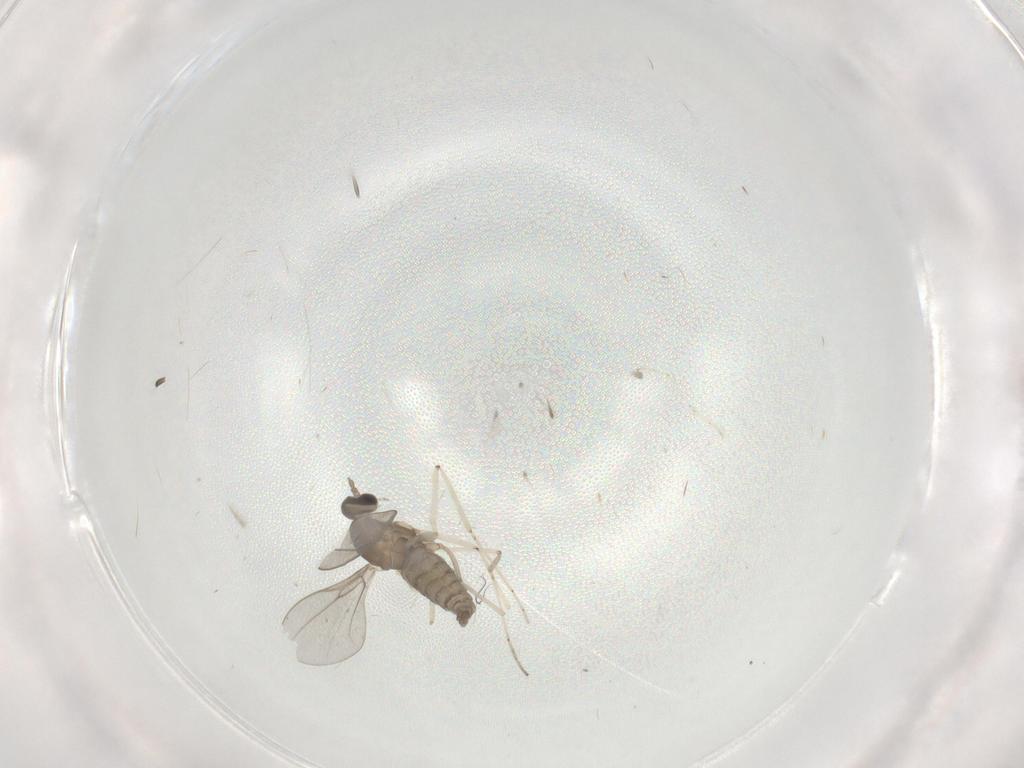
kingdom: Animalia
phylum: Arthropoda
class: Insecta
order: Diptera
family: Cecidomyiidae
